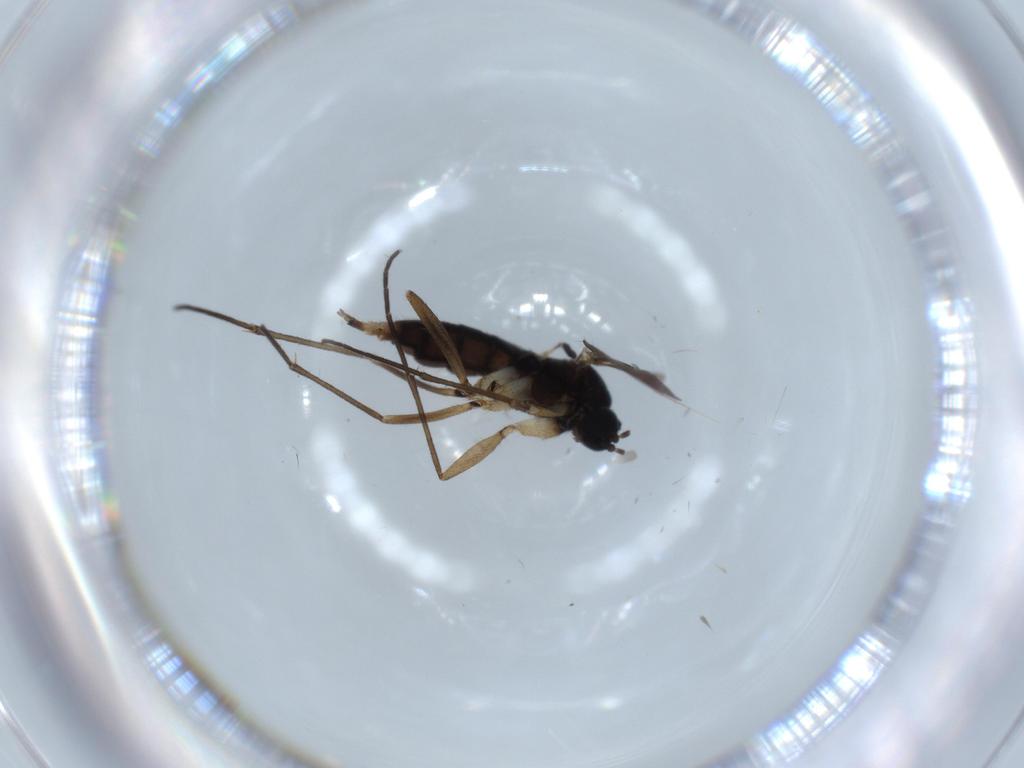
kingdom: Animalia
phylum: Arthropoda
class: Insecta
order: Diptera
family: Sciaridae
